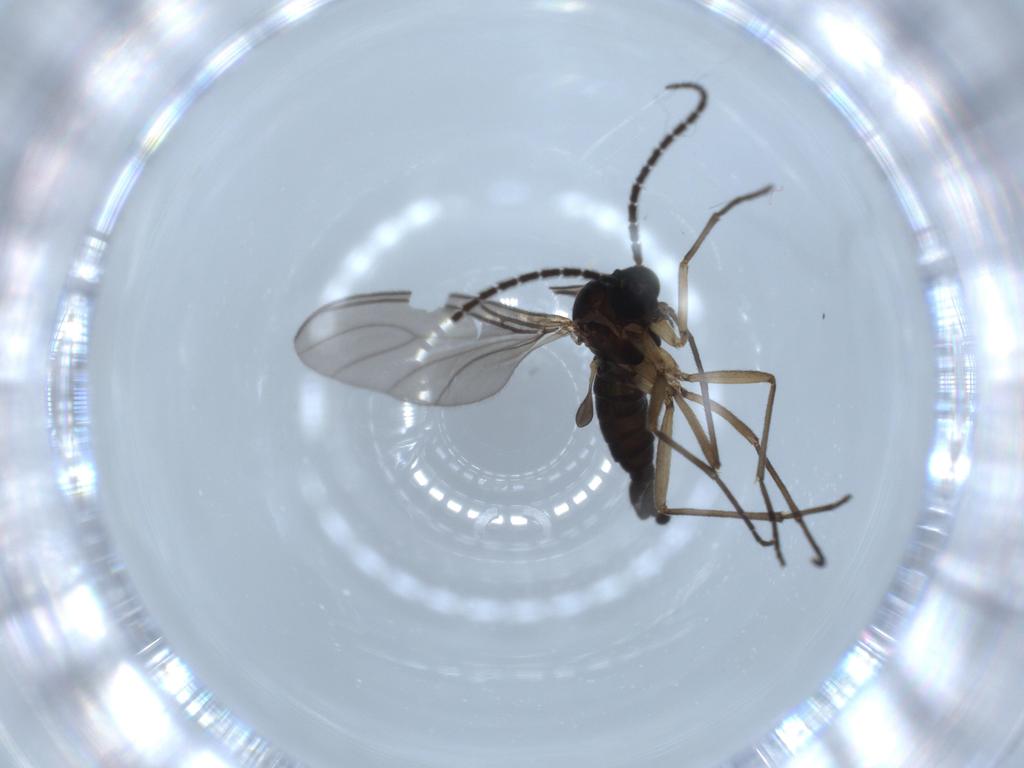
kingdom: Animalia
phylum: Arthropoda
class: Insecta
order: Diptera
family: Sciaridae
